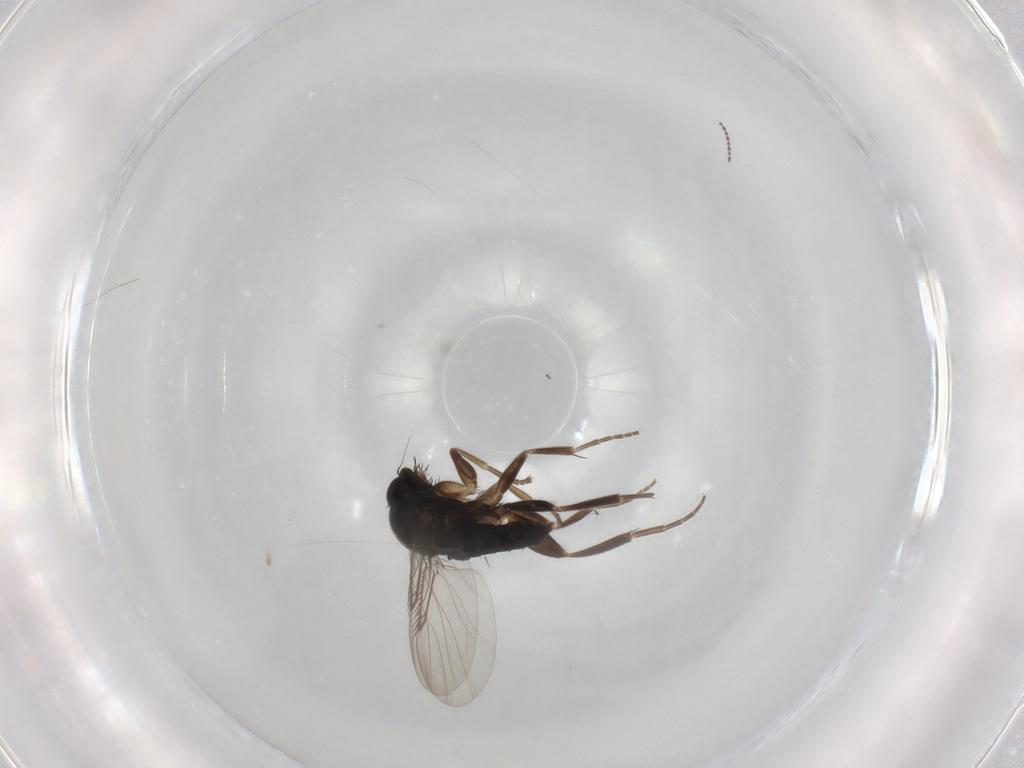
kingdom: Animalia
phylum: Arthropoda
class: Insecta
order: Diptera
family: Phoridae
